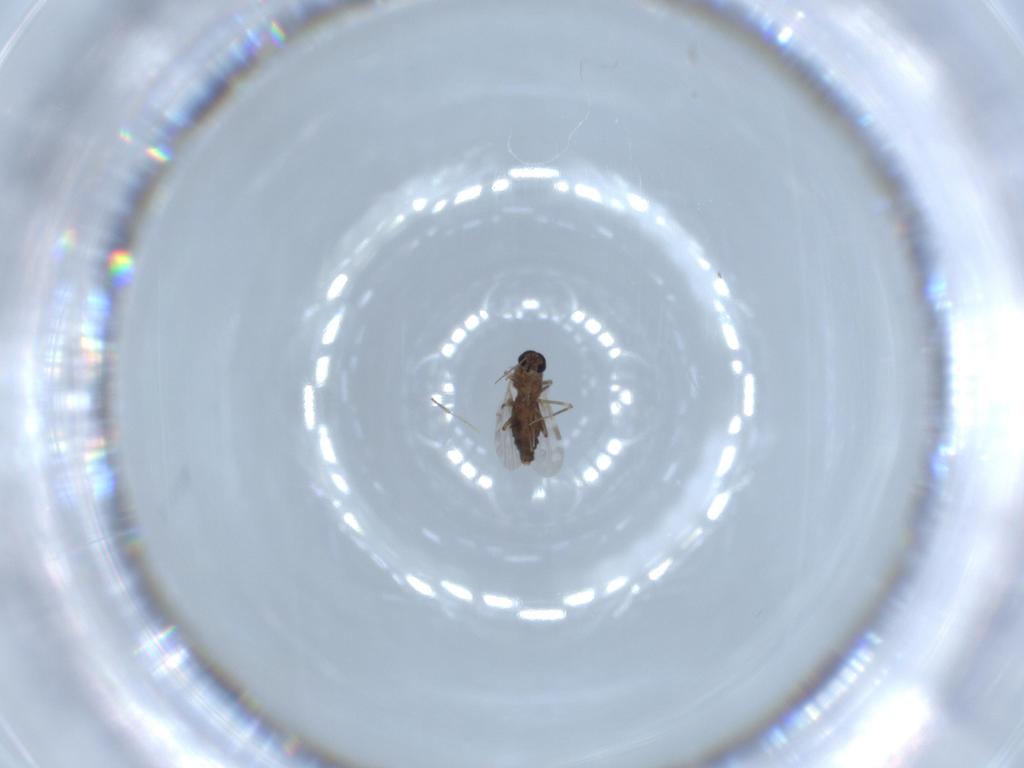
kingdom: Animalia
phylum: Arthropoda
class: Insecta
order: Diptera
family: Ceratopogonidae
